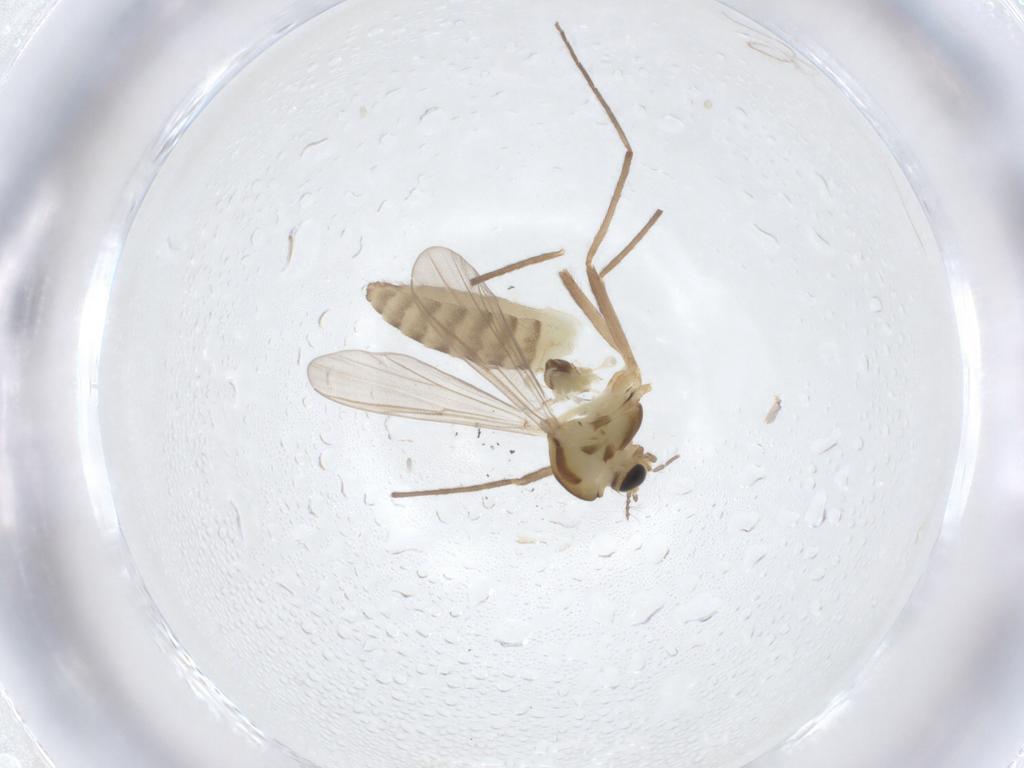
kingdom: Animalia
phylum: Arthropoda
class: Insecta
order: Diptera
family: Chironomidae
